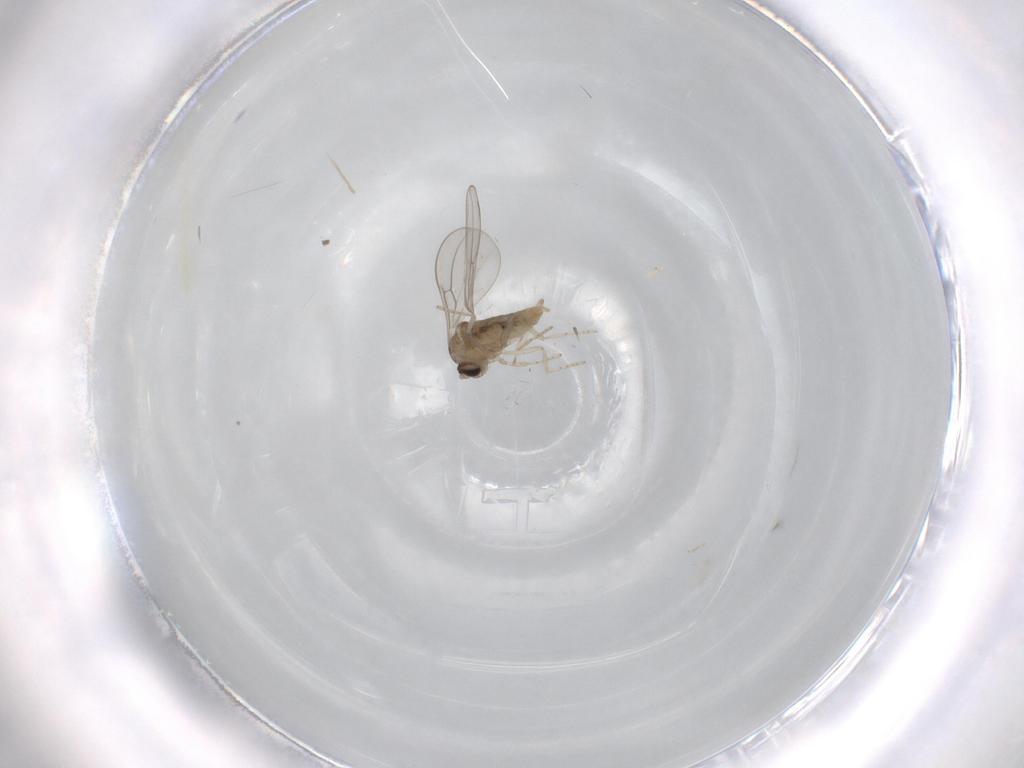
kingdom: Animalia
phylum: Arthropoda
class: Insecta
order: Diptera
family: Cecidomyiidae
